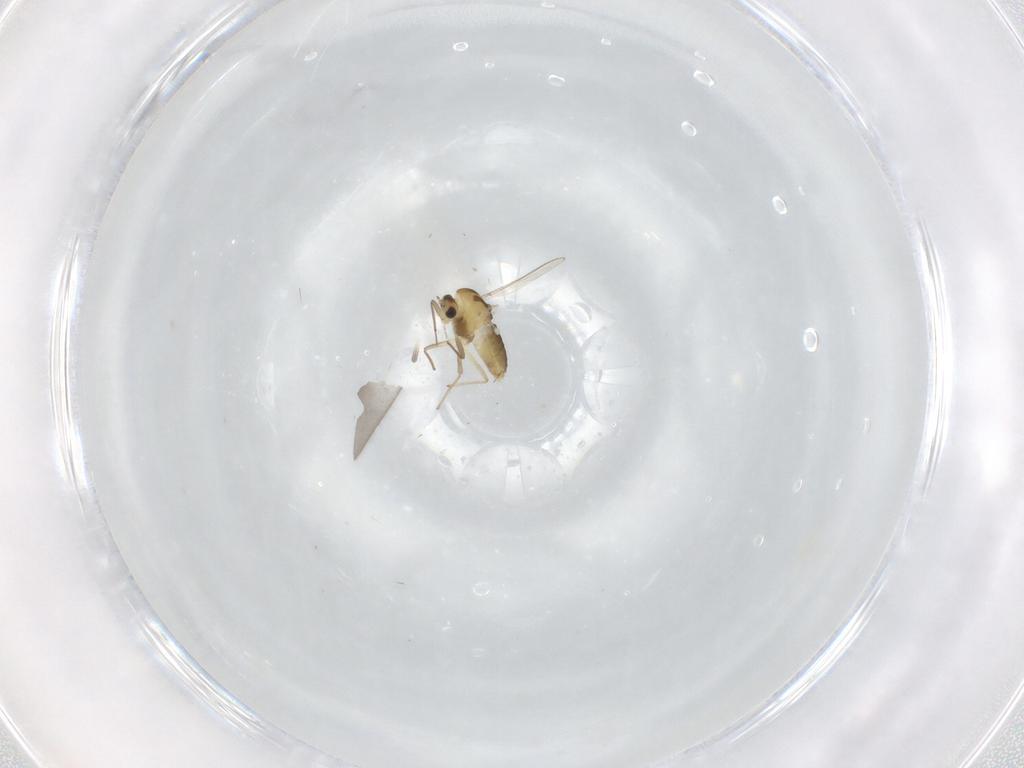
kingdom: Animalia
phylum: Arthropoda
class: Insecta
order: Diptera
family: Chironomidae
